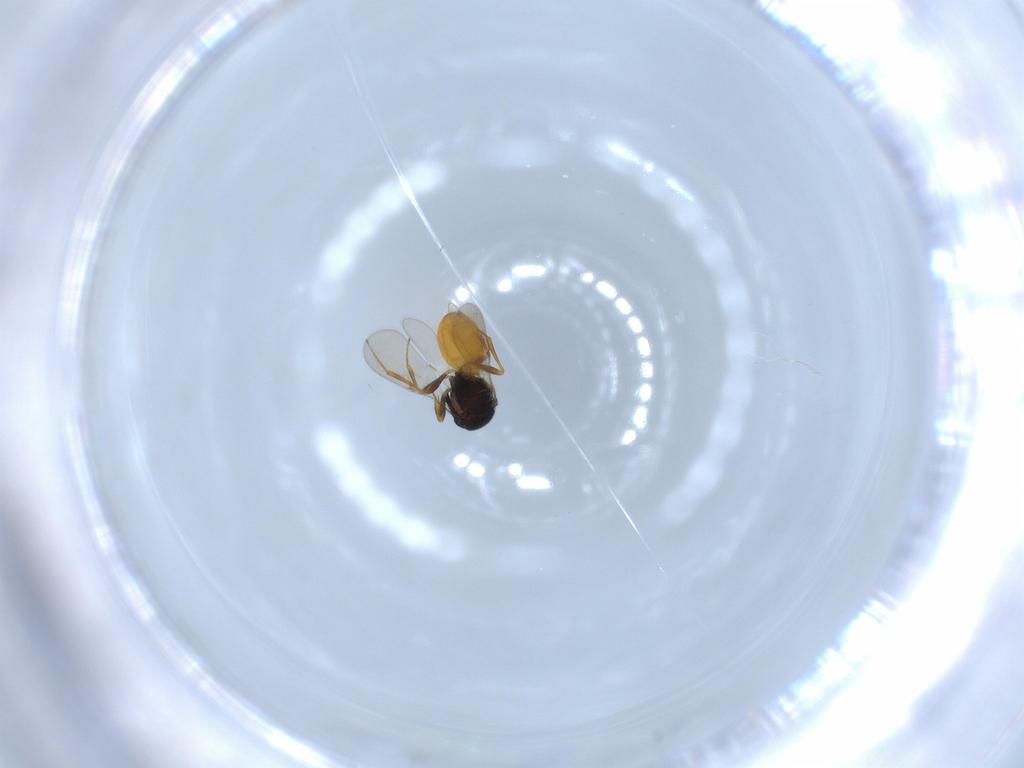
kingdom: Animalia
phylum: Arthropoda
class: Insecta
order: Hymenoptera
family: Scelionidae
